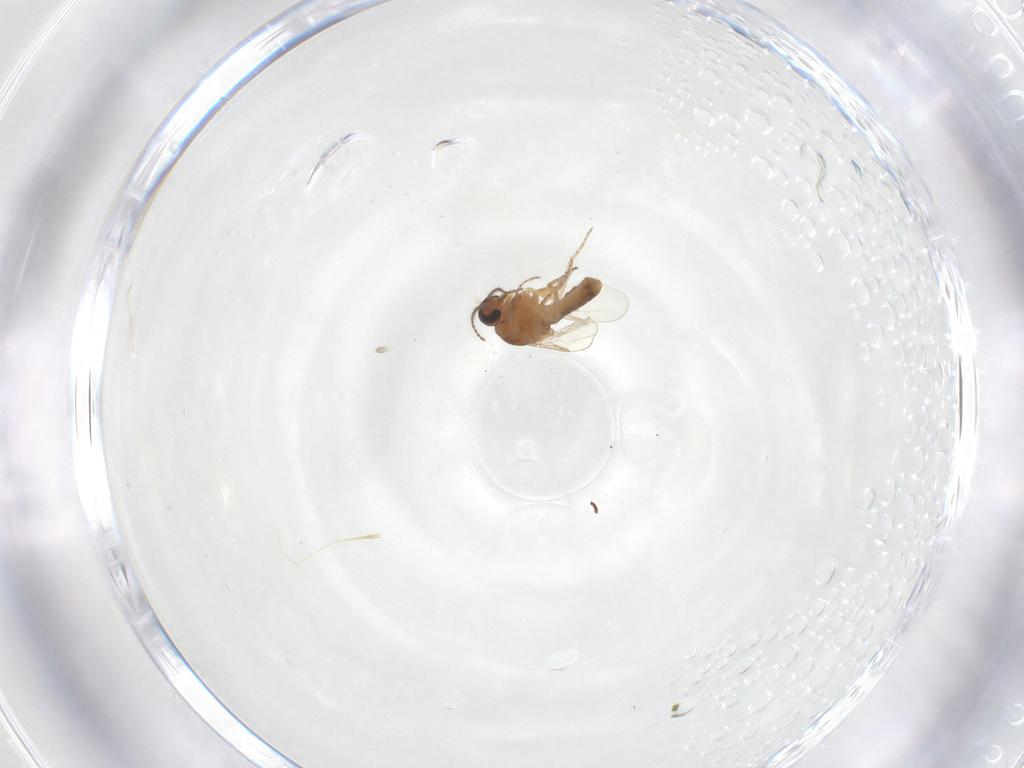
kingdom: Animalia
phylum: Arthropoda
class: Insecta
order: Diptera
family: Ceratopogonidae
